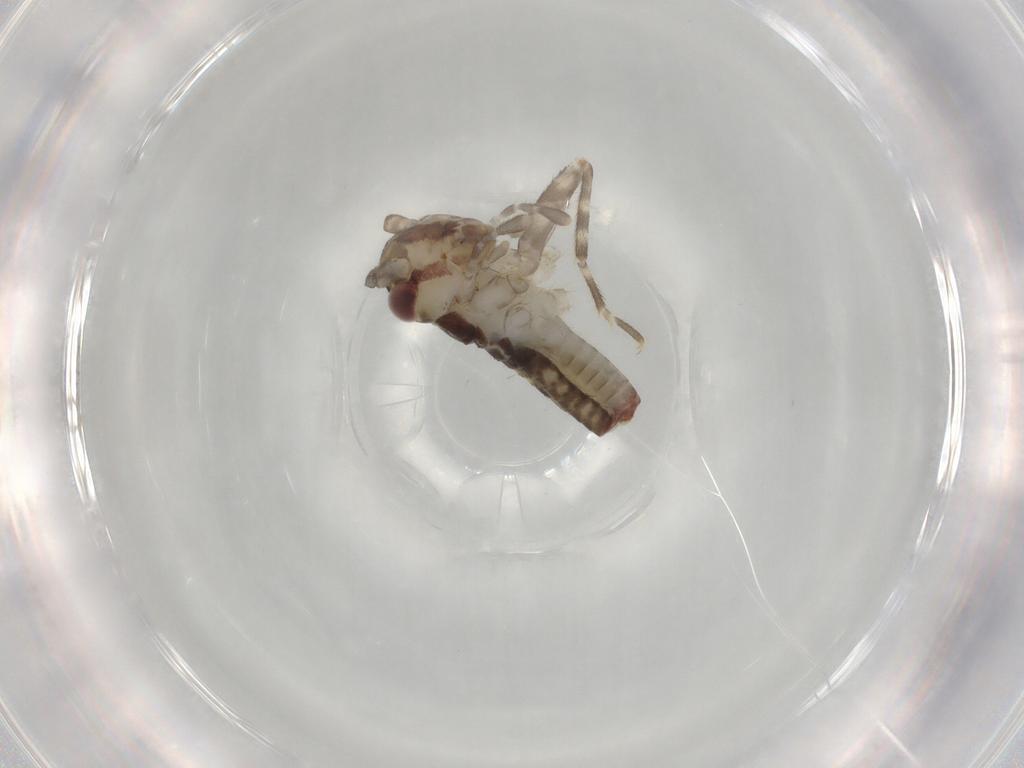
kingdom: Animalia
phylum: Arthropoda
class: Insecta
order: Orthoptera
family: Gryllidae
